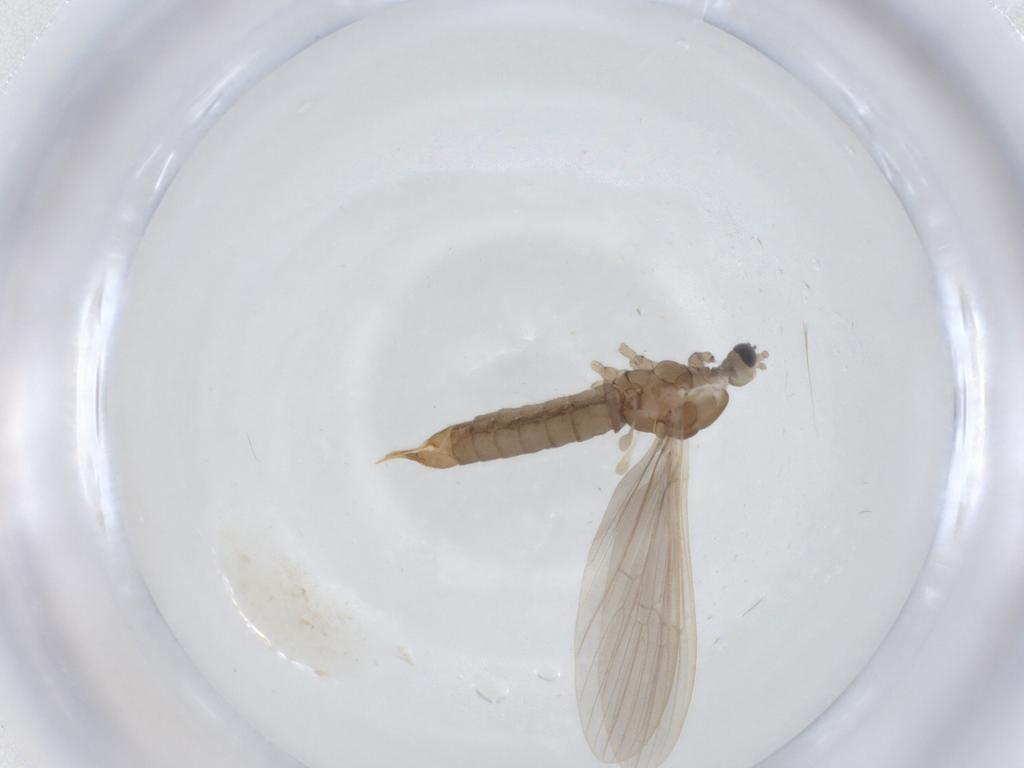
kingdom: Animalia
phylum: Arthropoda
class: Insecta
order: Diptera
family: Limoniidae
